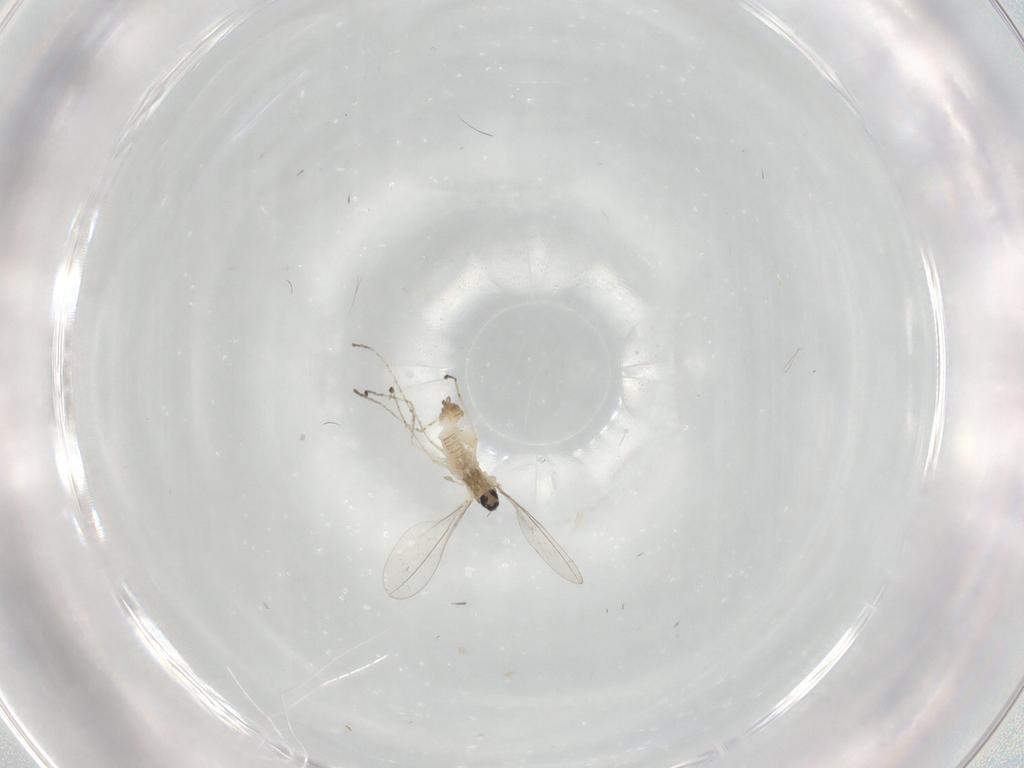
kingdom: Animalia
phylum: Arthropoda
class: Insecta
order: Diptera
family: Cecidomyiidae
